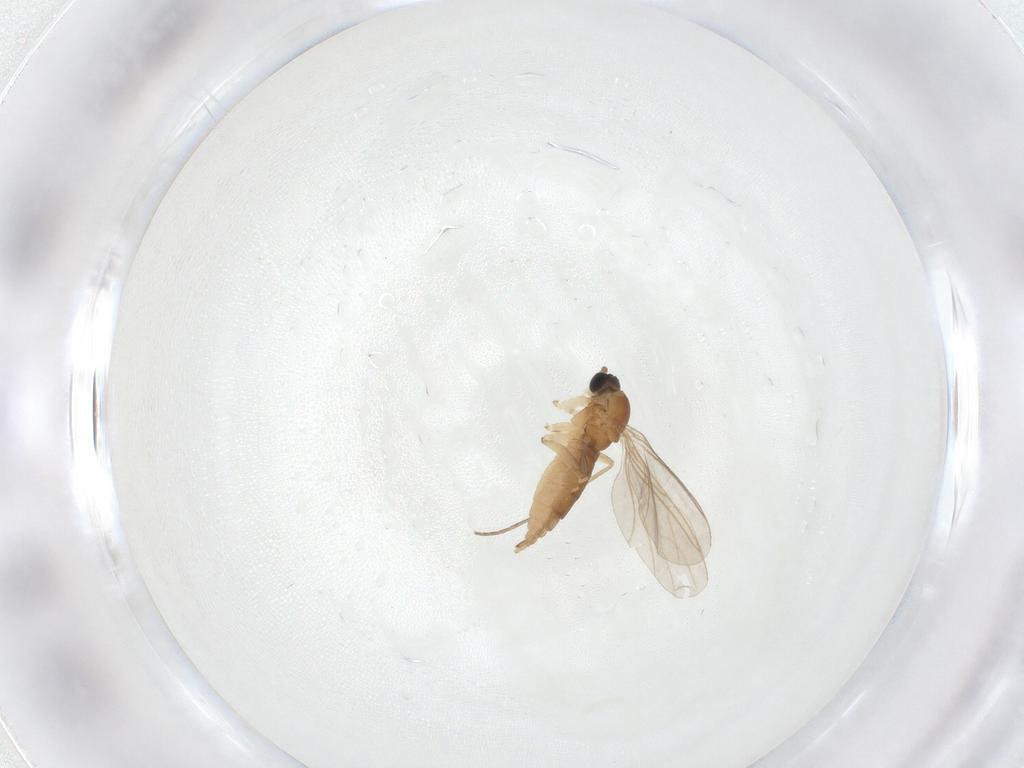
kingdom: Animalia
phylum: Arthropoda
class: Insecta
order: Diptera
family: Sciaridae
